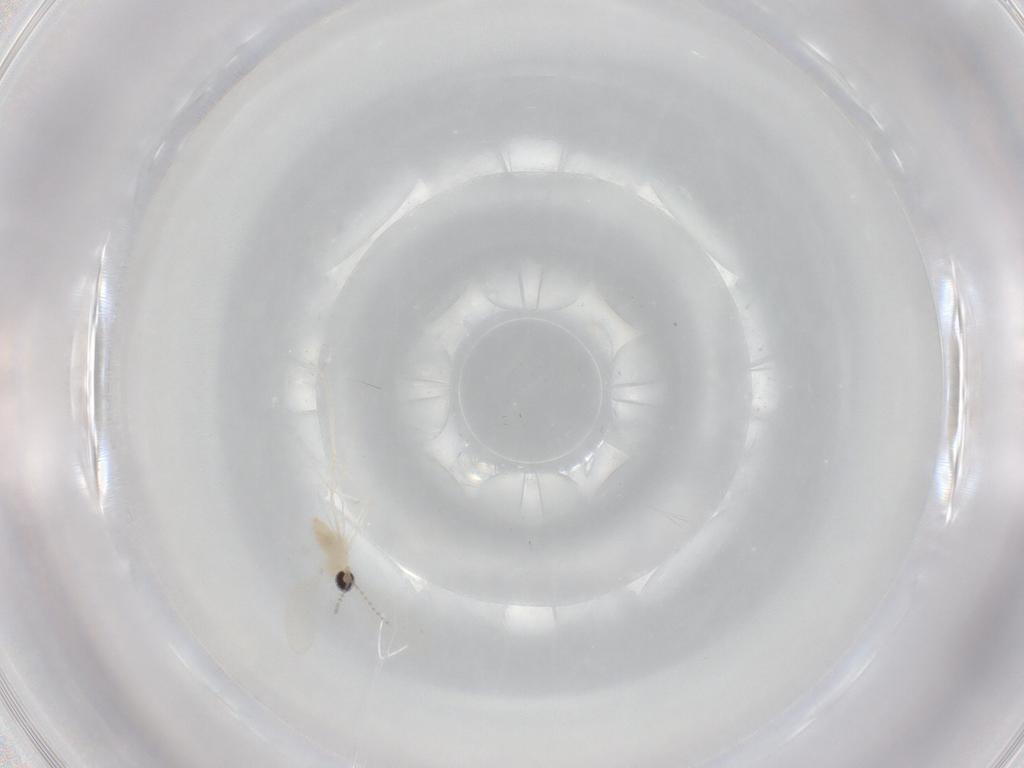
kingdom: Animalia
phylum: Arthropoda
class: Insecta
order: Diptera
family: Cecidomyiidae
